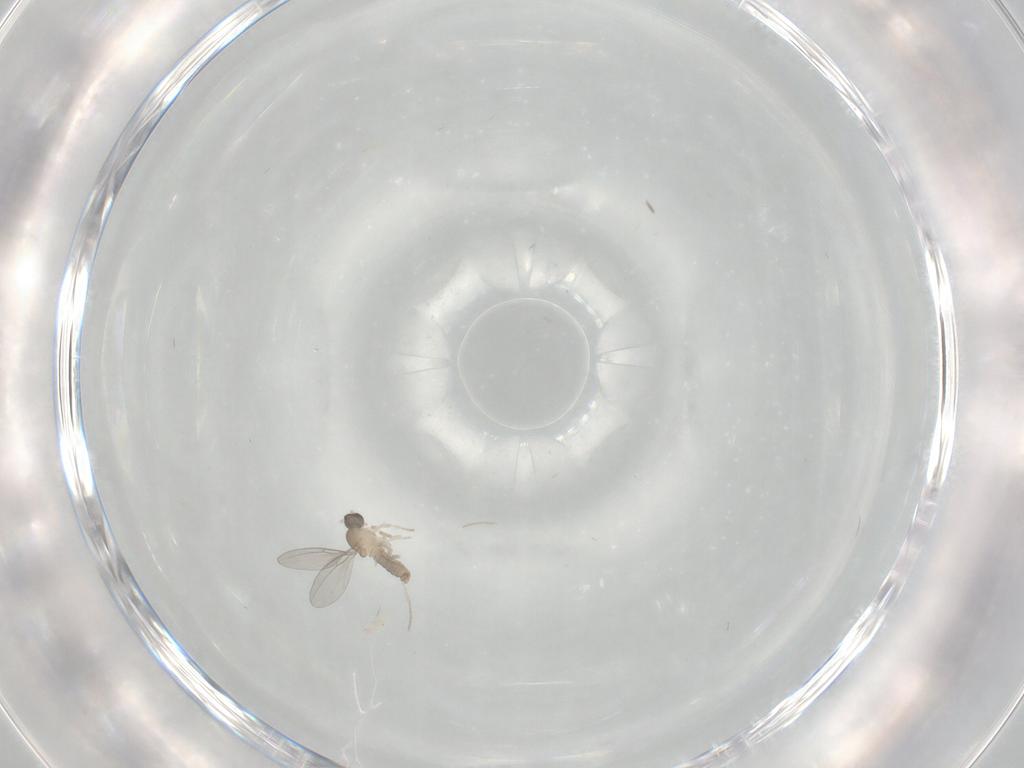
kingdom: Animalia
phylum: Arthropoda
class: Insecta
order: Diptera
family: Cecidomyiidae
